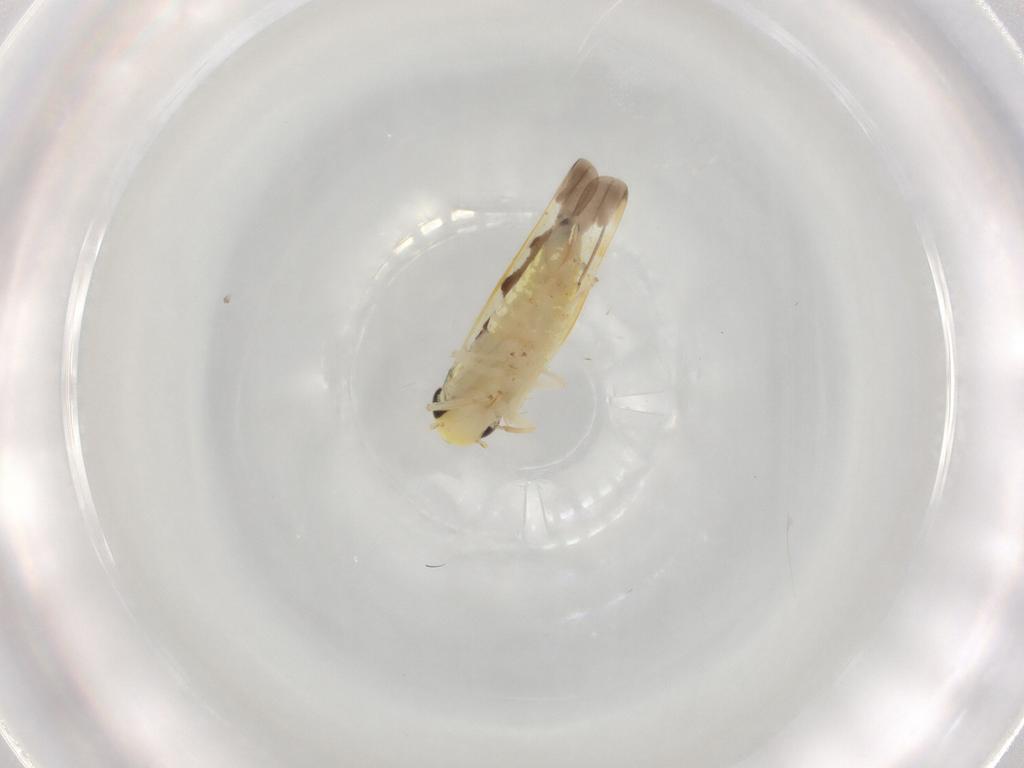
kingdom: Animalia
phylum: Arthropoda
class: Insecta
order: Hemiptera
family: Cicadellidae
